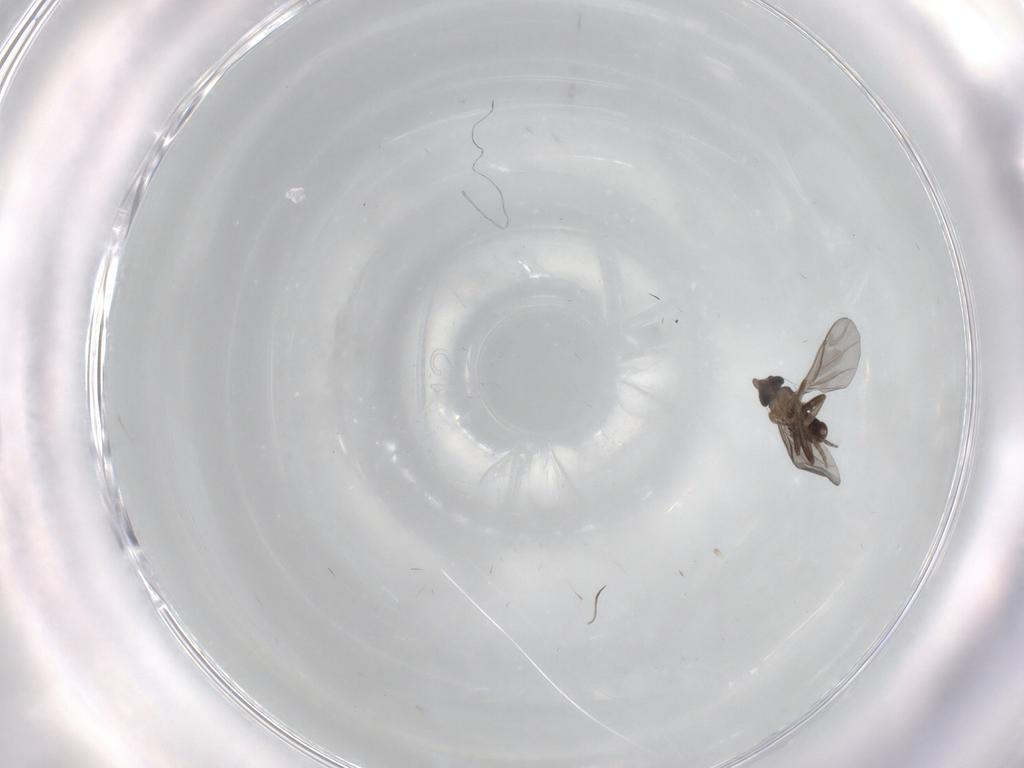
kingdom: Animalia
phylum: Arthropoda
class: Insecta
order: Diptera
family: Phoridae
